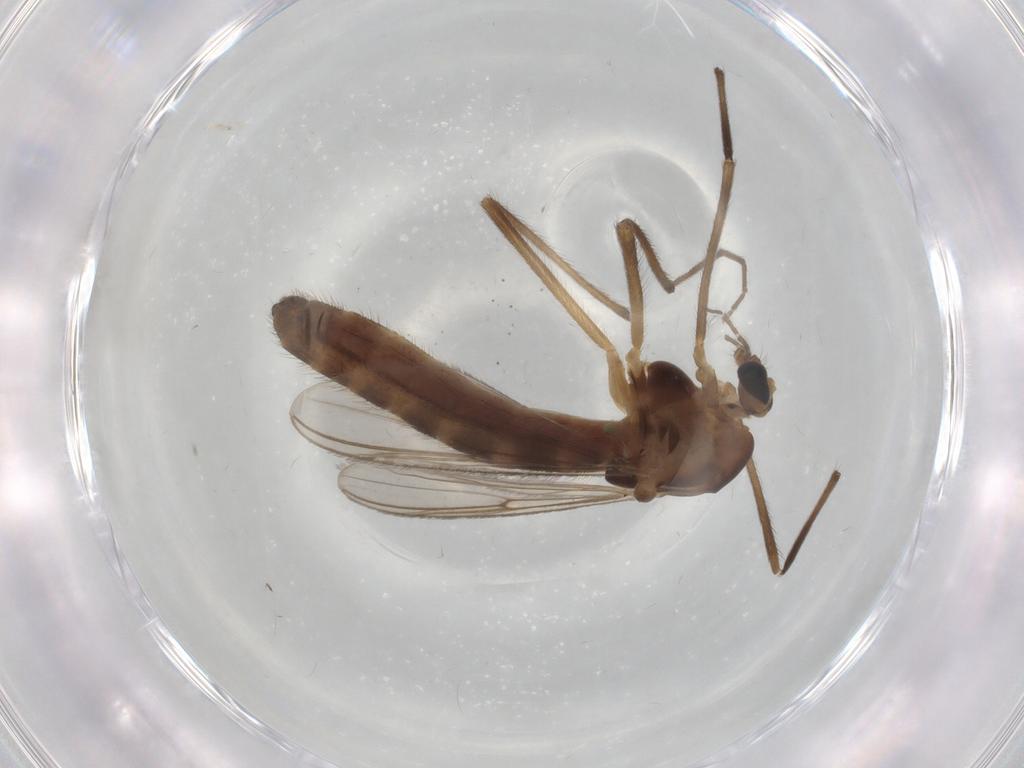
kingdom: Animalia
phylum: Arthropoda
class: Insecta
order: Diptera
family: Chironomidae
